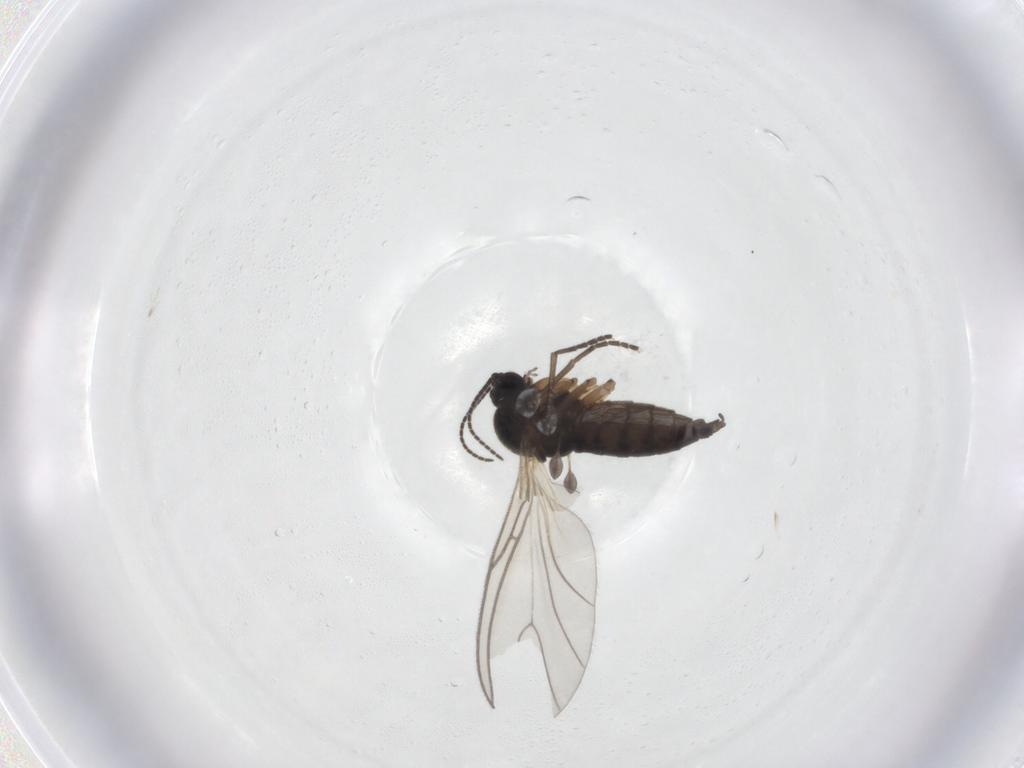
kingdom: Animalia
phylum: Arthropoda
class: Insecta
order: Diptera
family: Sciaridae
